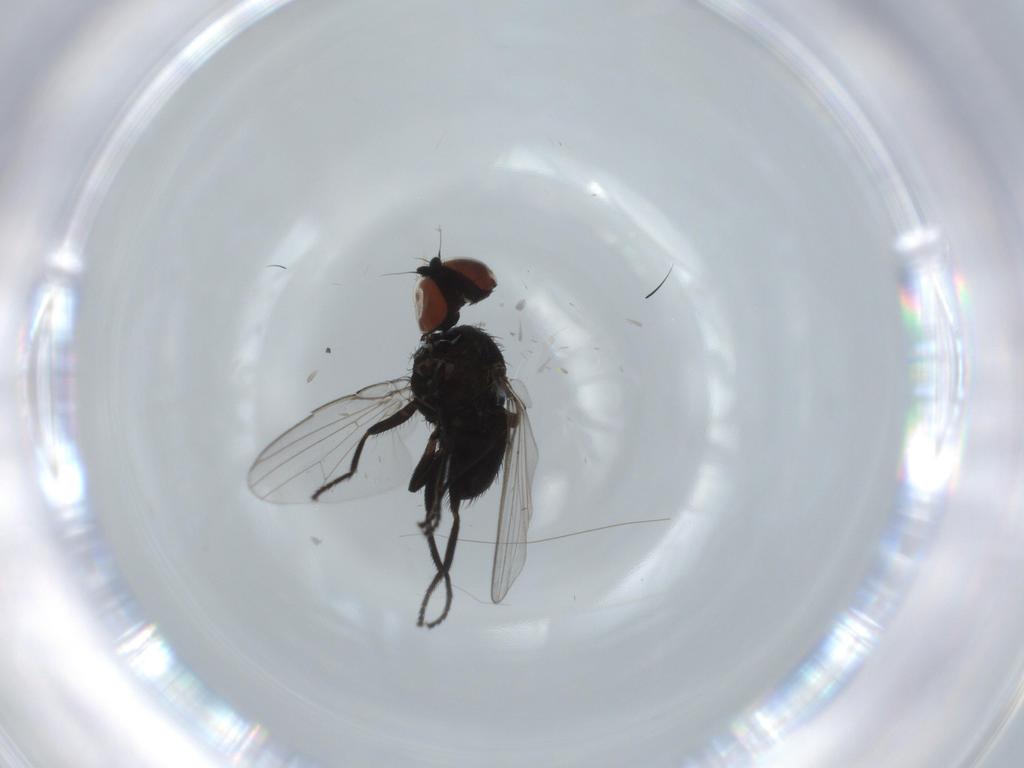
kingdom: Animalia
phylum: Arthropoda
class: Insecta
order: Diptera
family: Milichiidae
